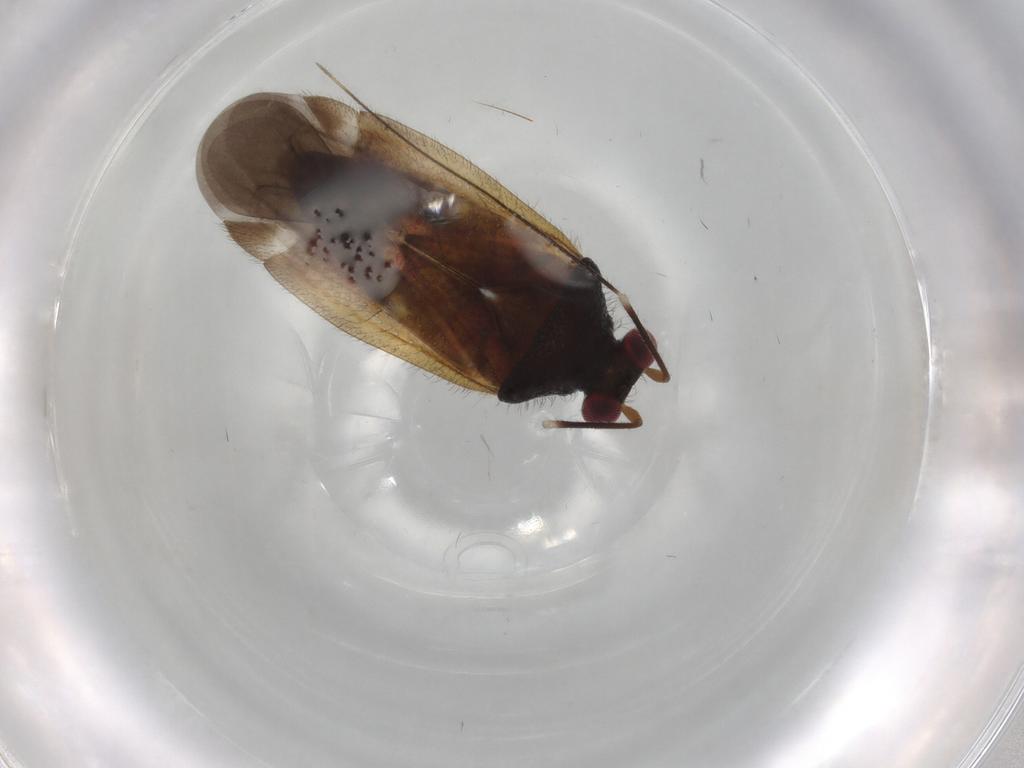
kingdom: Animalia
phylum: Arthropoda
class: Insecta
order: Hemiptera
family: Miridae
